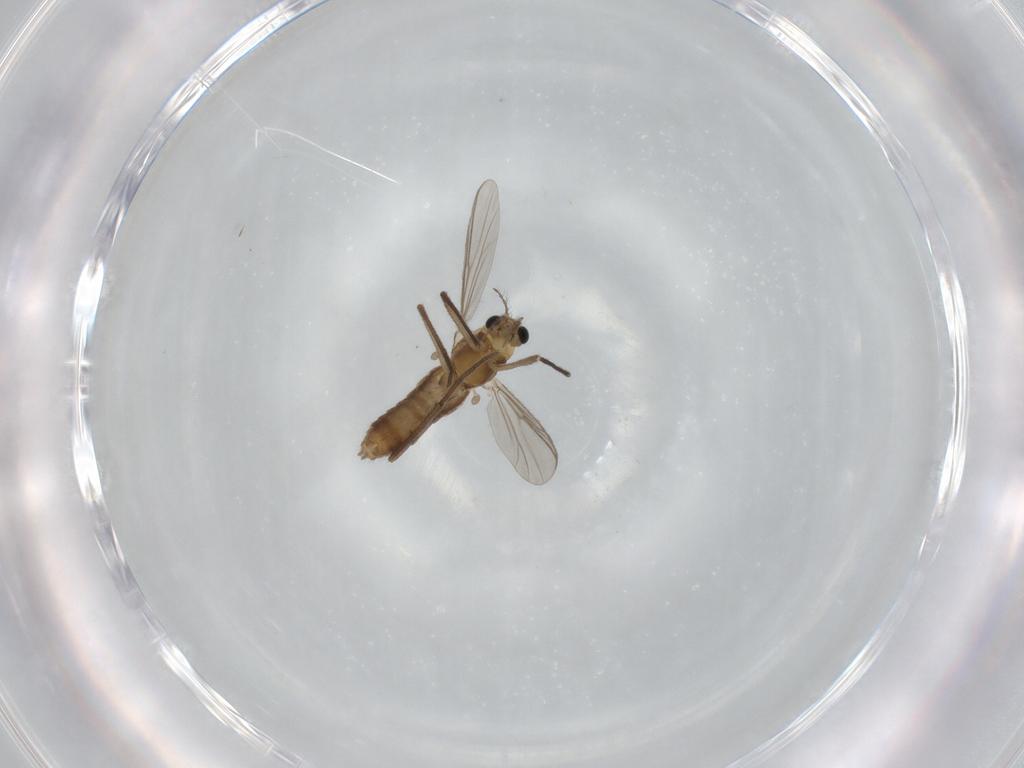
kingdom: Animalia
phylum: Arthropoda
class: Insecta
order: Diptera
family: Chironomidae
